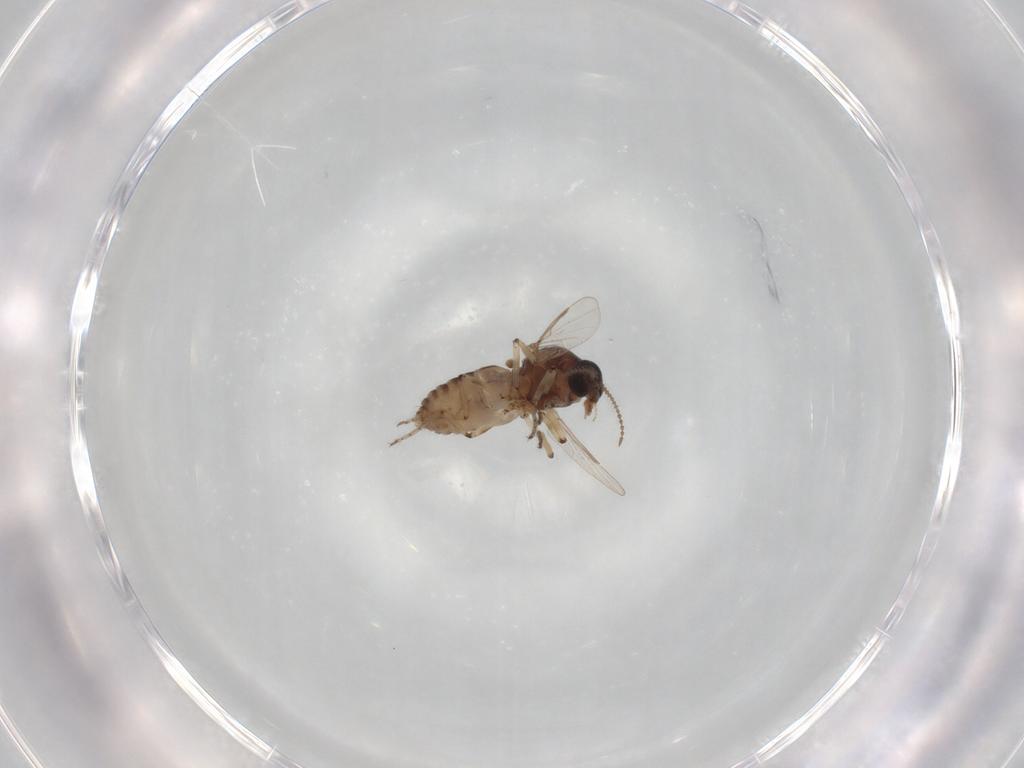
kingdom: Animalia
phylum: Arthropoda
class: Insecta
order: Diptera
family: Ceratopogonidae
